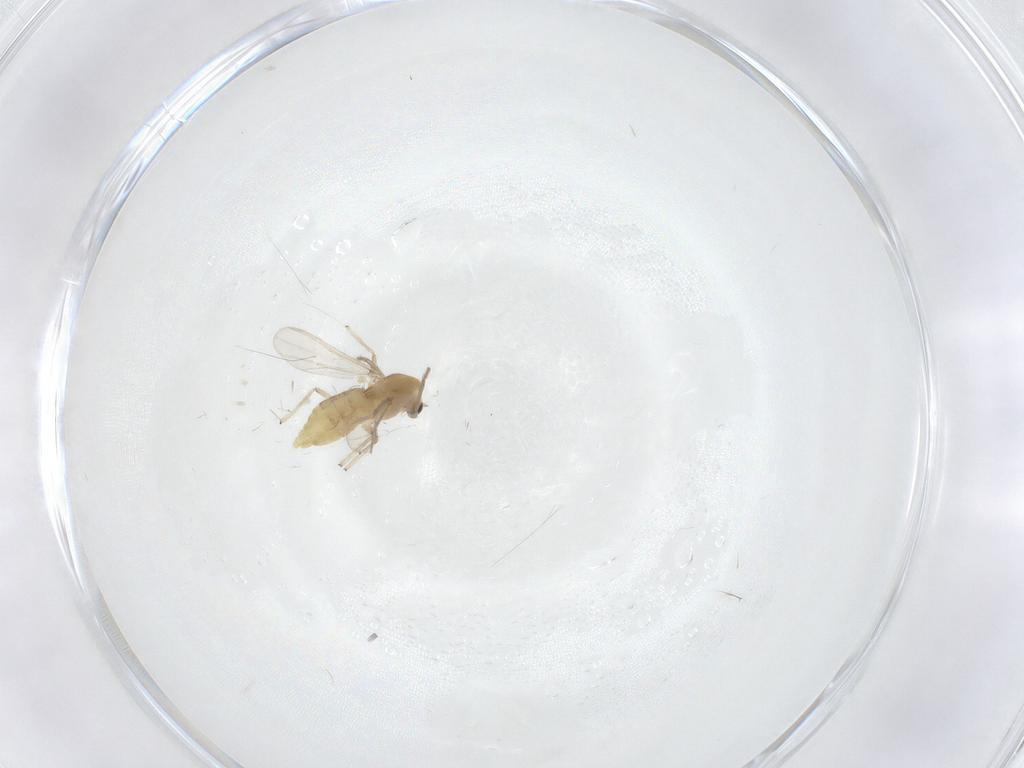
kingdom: Animalia
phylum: Arthropoda
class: Insecta
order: Diptera
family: Chironomidae
